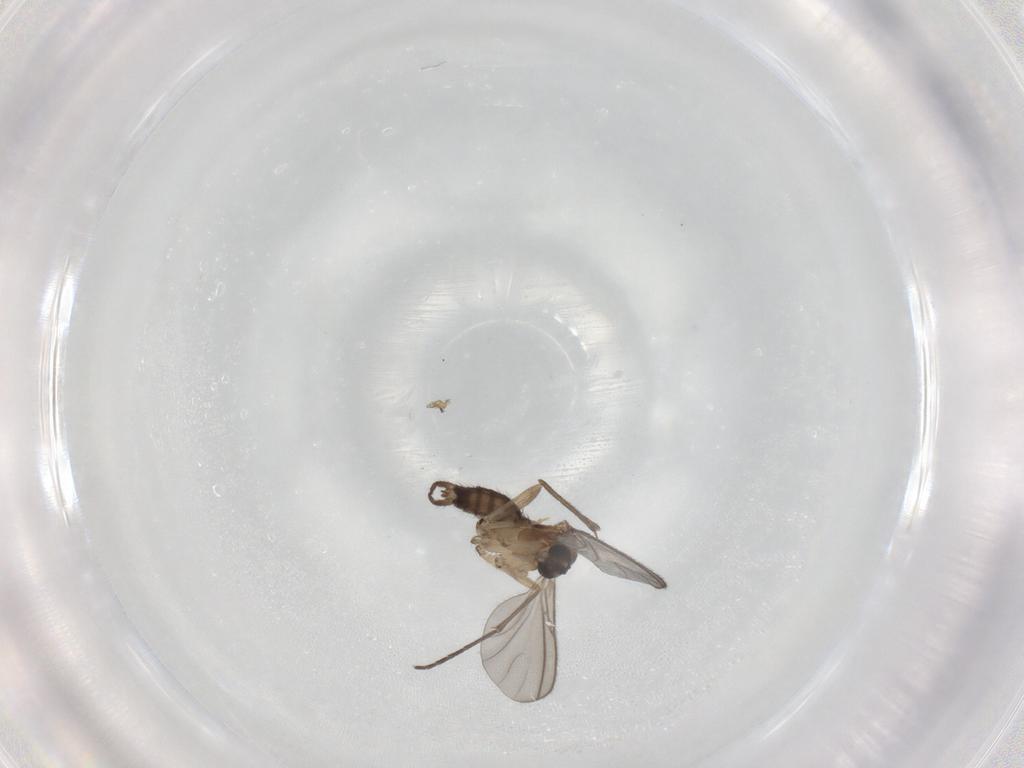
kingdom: Animalia
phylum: Arthropoda
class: Insecta
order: Diptera
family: Sciaridae
